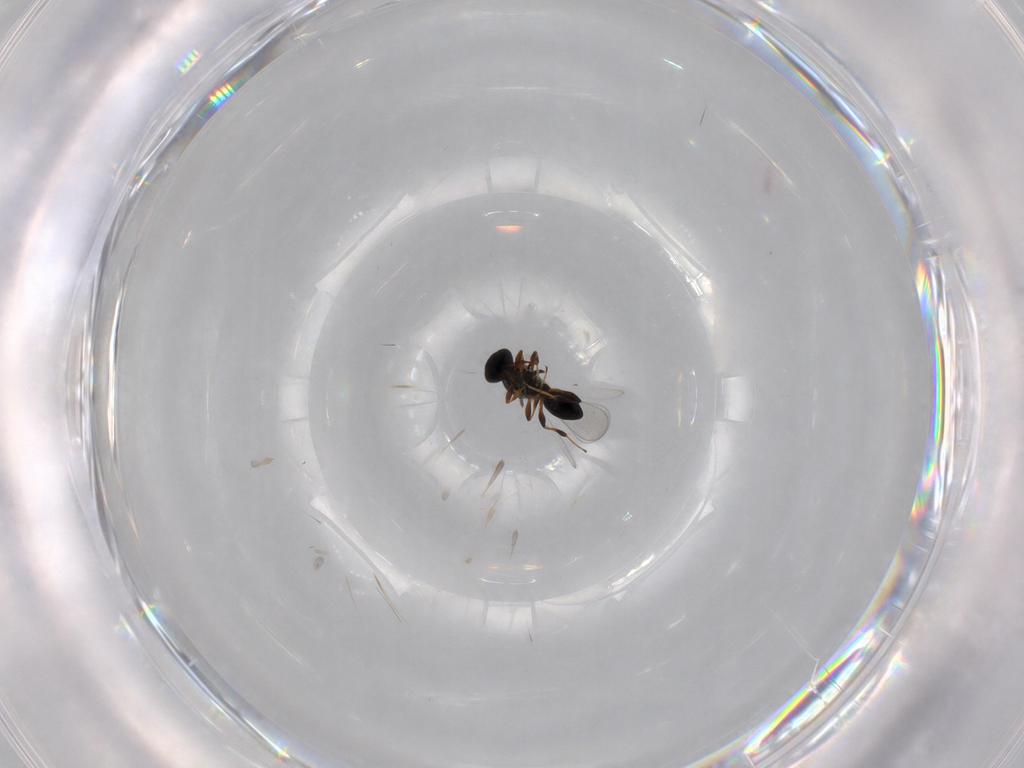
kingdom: Animalia
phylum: Arthropoda
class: Insecta
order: Hymenoptera
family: Platygastridae
